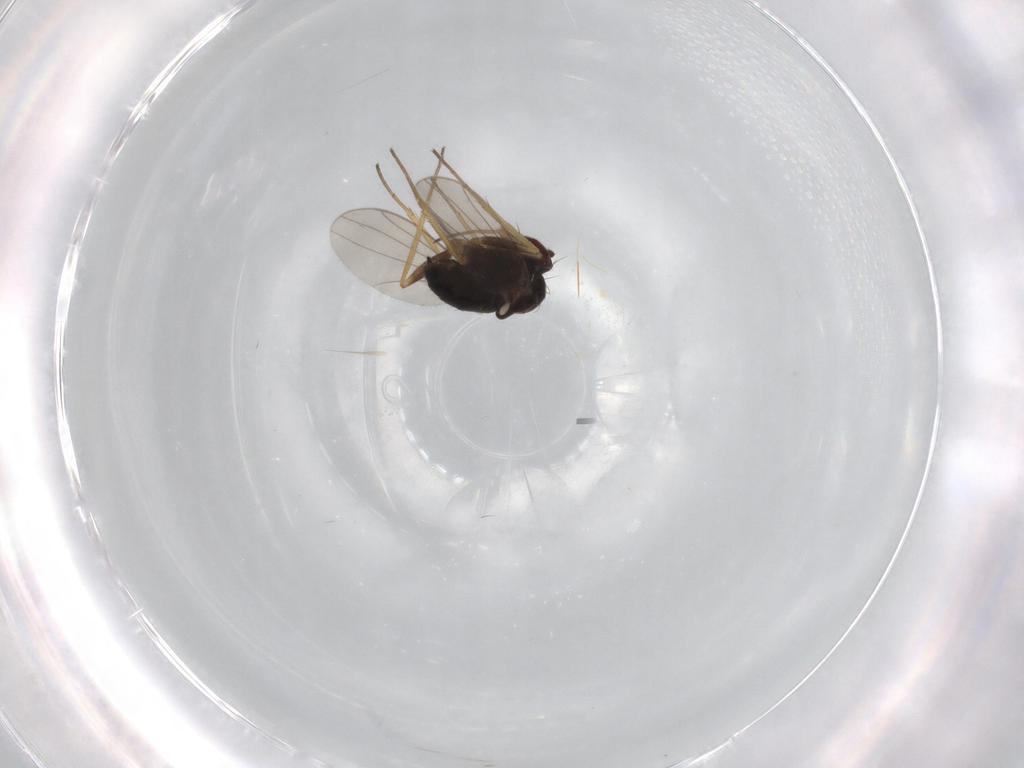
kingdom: Animalia
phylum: Arthropoda
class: Insecta
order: Diptera
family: Dolichopodidae
